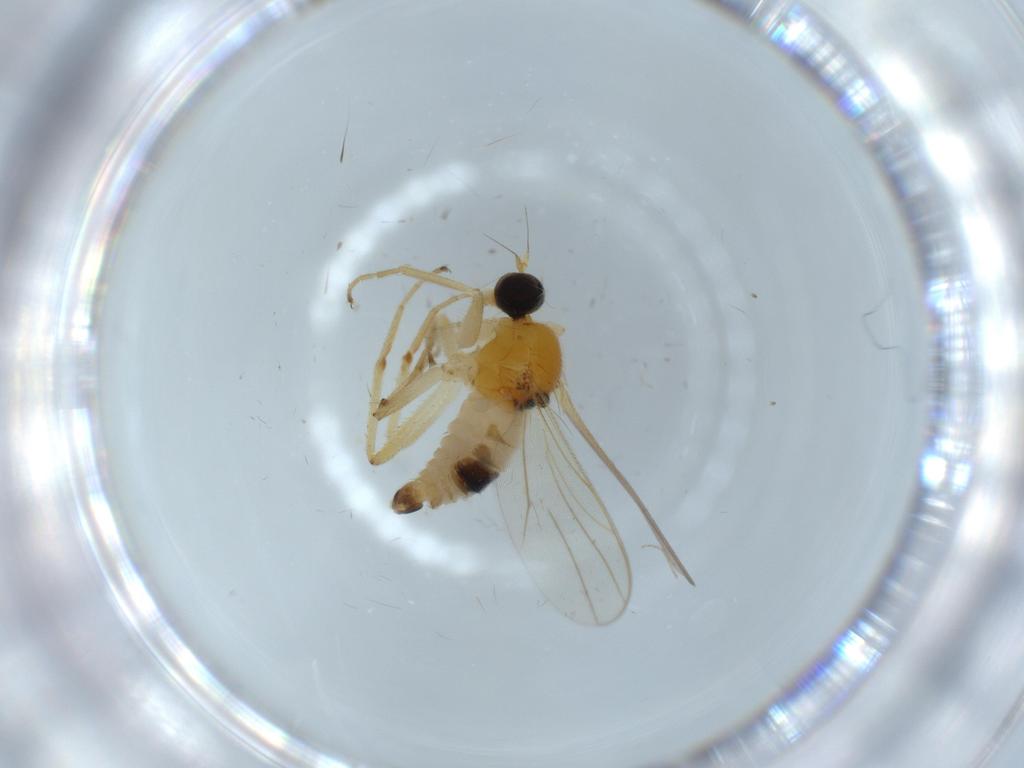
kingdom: Animalia
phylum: Arthropoda
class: Insecta
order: Diptera
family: Hybotidae
